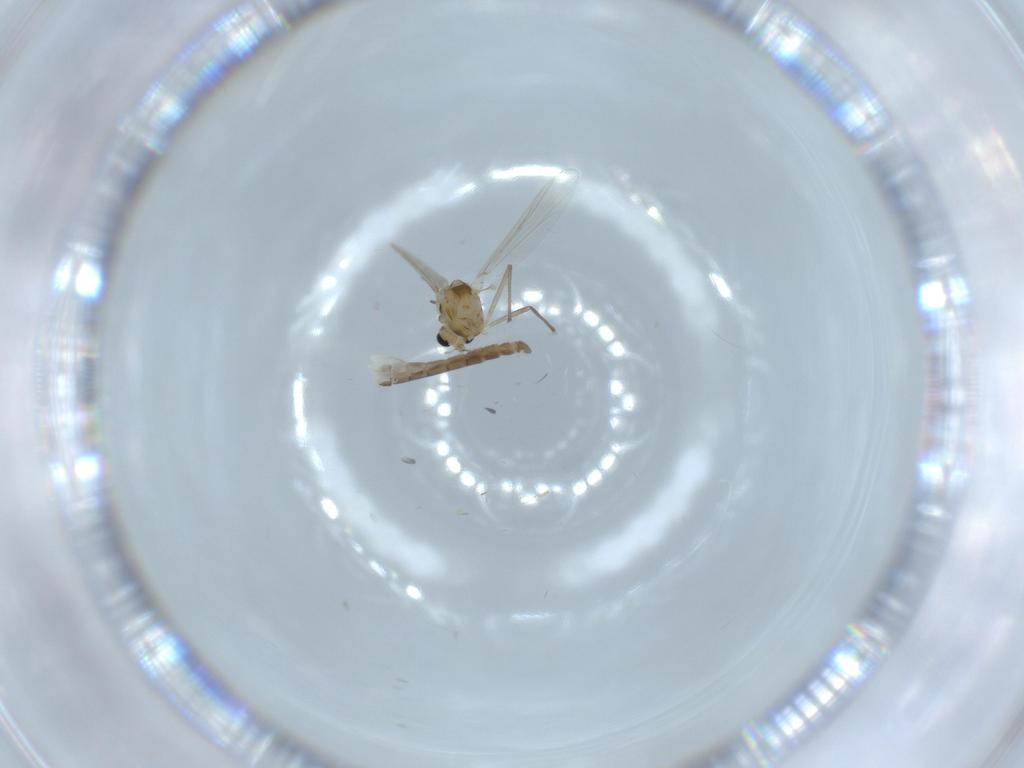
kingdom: Animalia
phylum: Arthropoda
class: Insecta
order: Diptera
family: Chironomidae
